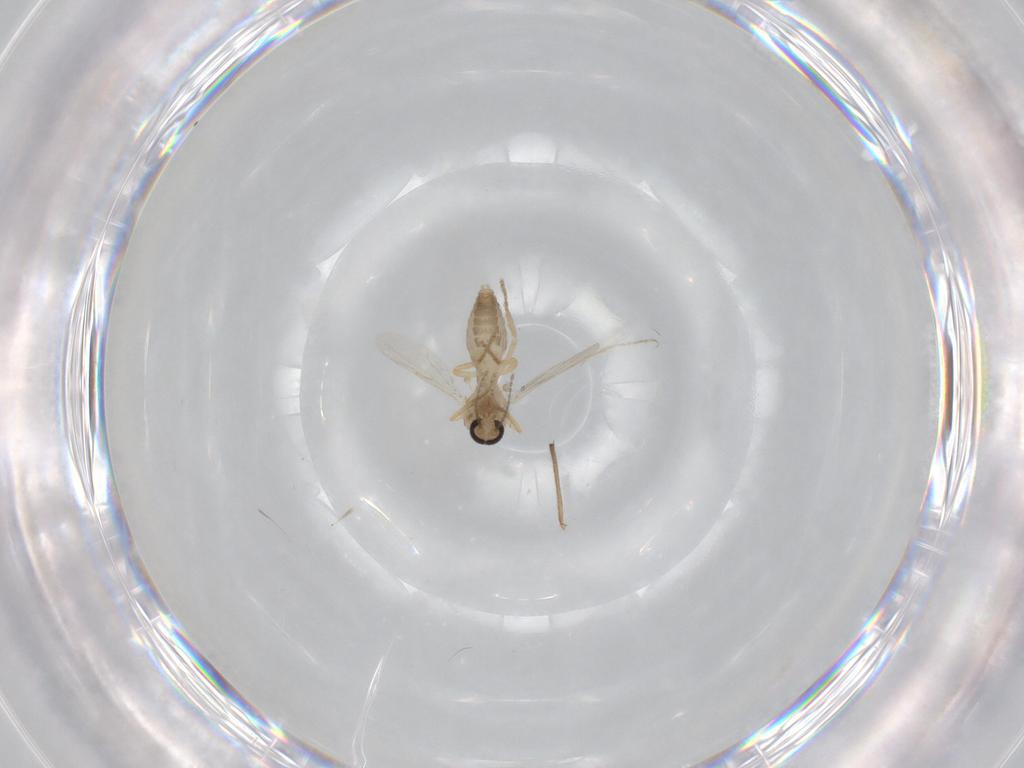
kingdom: Animalia
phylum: Arthropoda
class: Insecta
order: Diptera
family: Ceratopogonidae
